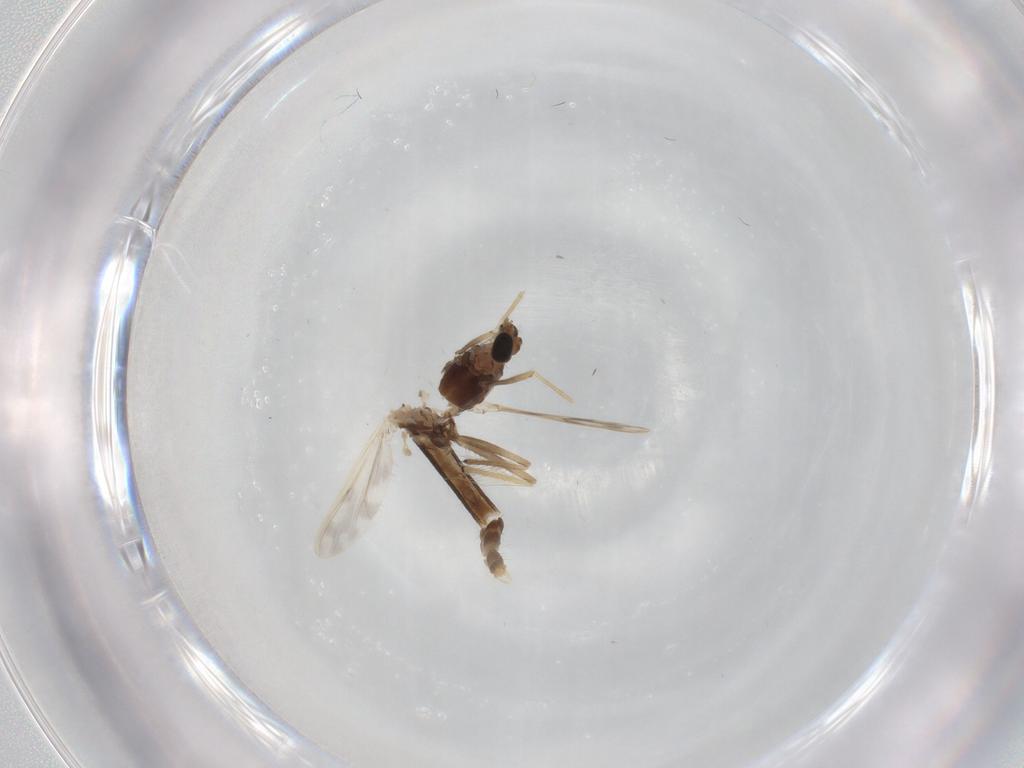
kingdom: Animalia
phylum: Arthropoda
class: Insecta
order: Diptera
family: Chironomidae
